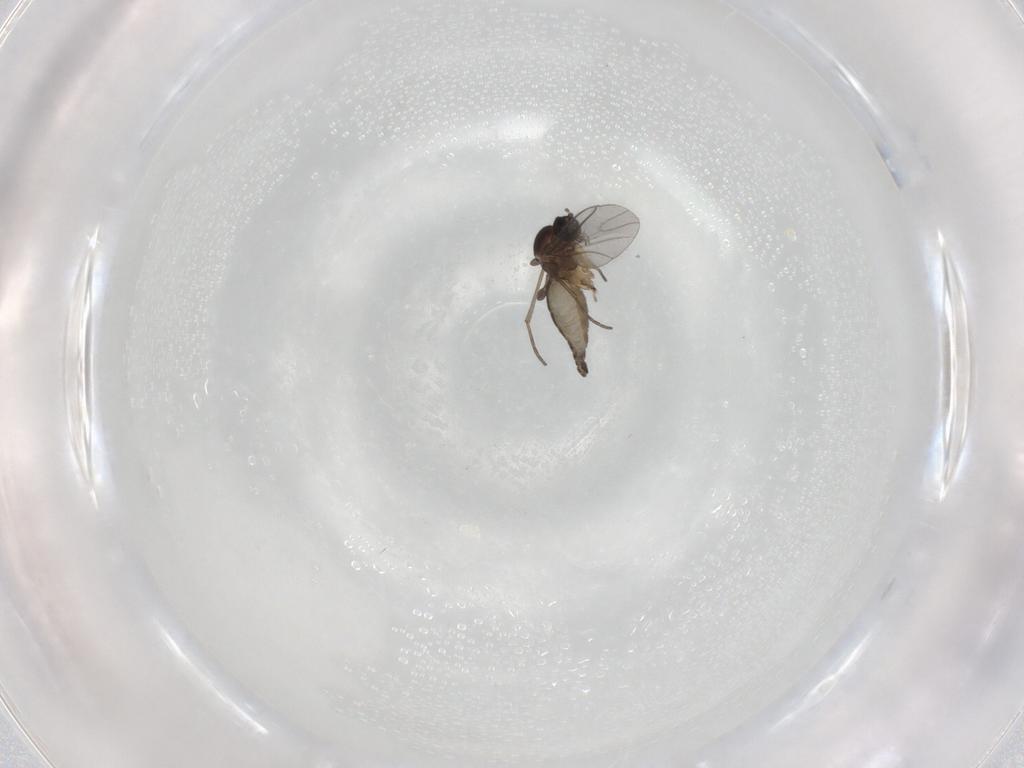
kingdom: Animalia
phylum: Arthropoda
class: Insecta
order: Diptera
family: Sciaridae
